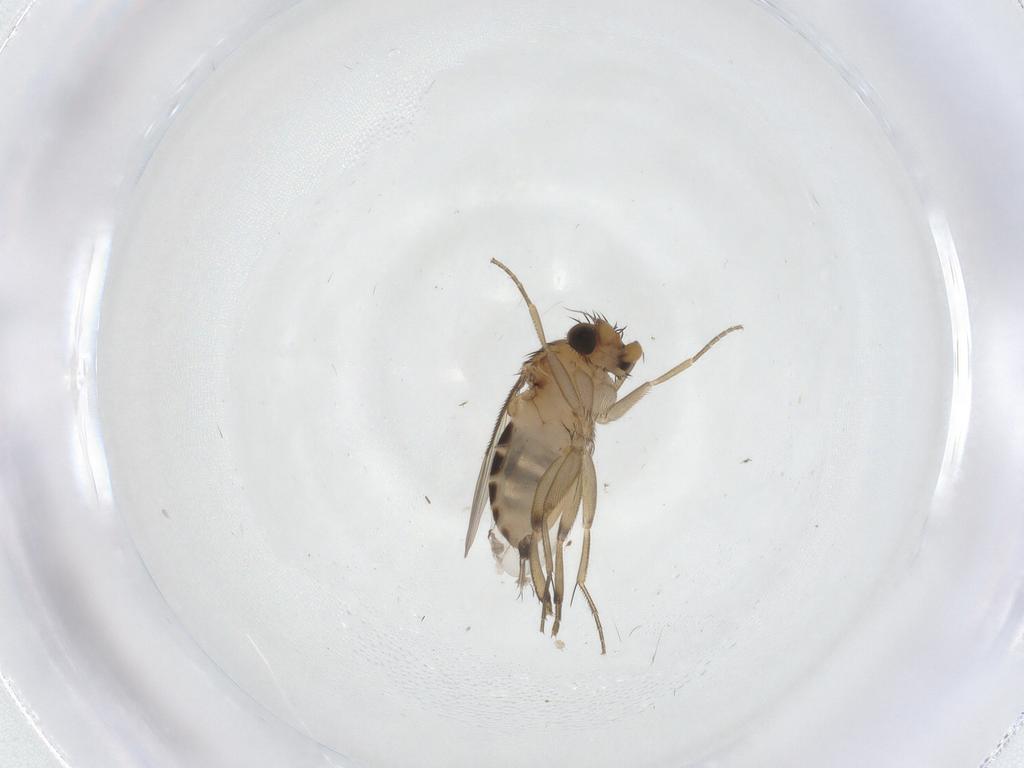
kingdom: Animalia
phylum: Arthropoda
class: Insecta
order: Diptera
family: Phoridae
